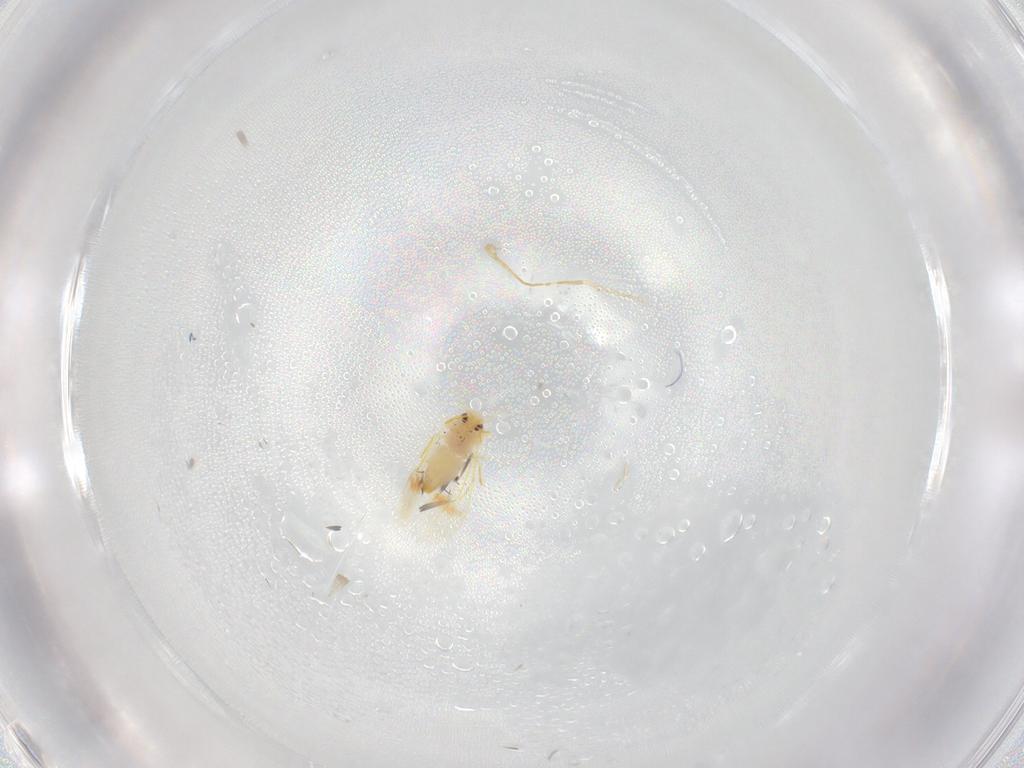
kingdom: Animalia
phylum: Arthropoda
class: Insecta
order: Hemiptera
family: Aleyrodidae
